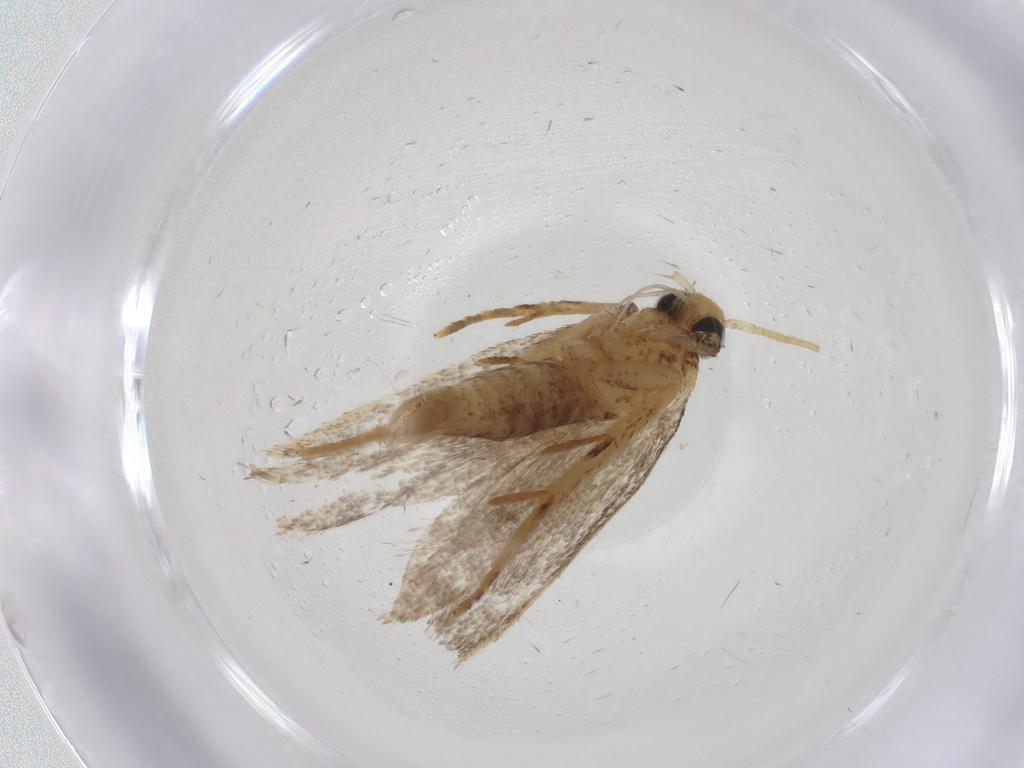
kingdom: Animalia
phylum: Arthropoda
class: Insecta
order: Lepidoptera
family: Oecophoridae
